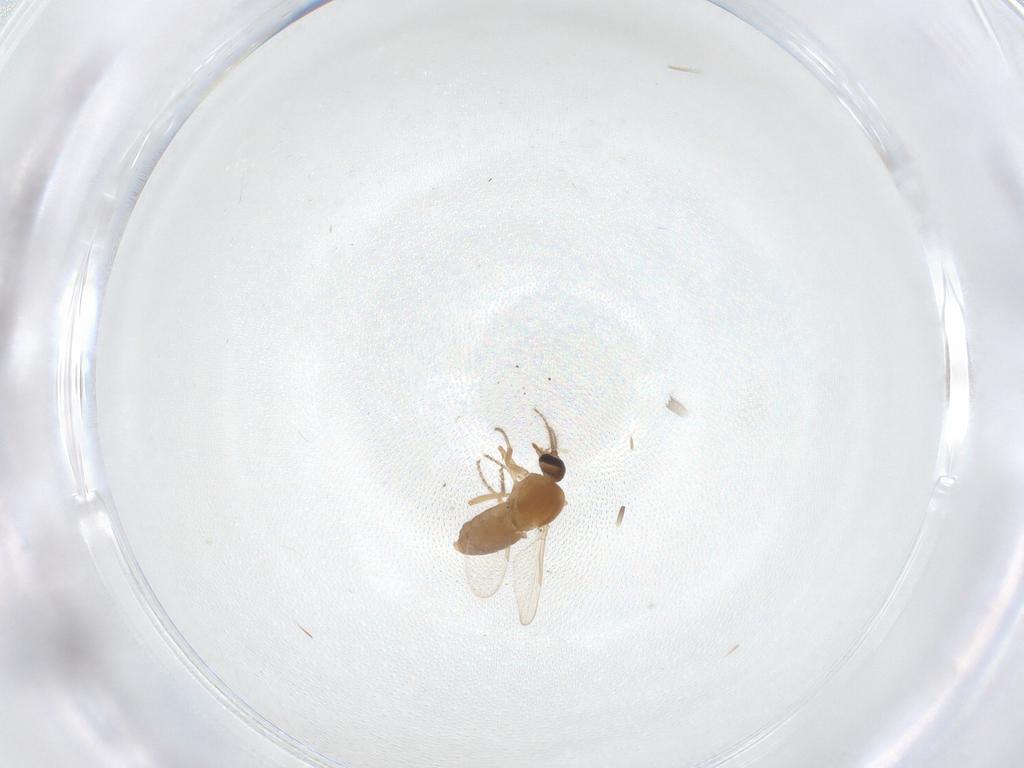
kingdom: Animalia
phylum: Arthropoda
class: Insecta
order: Diptera
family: Ceratopogonidae
